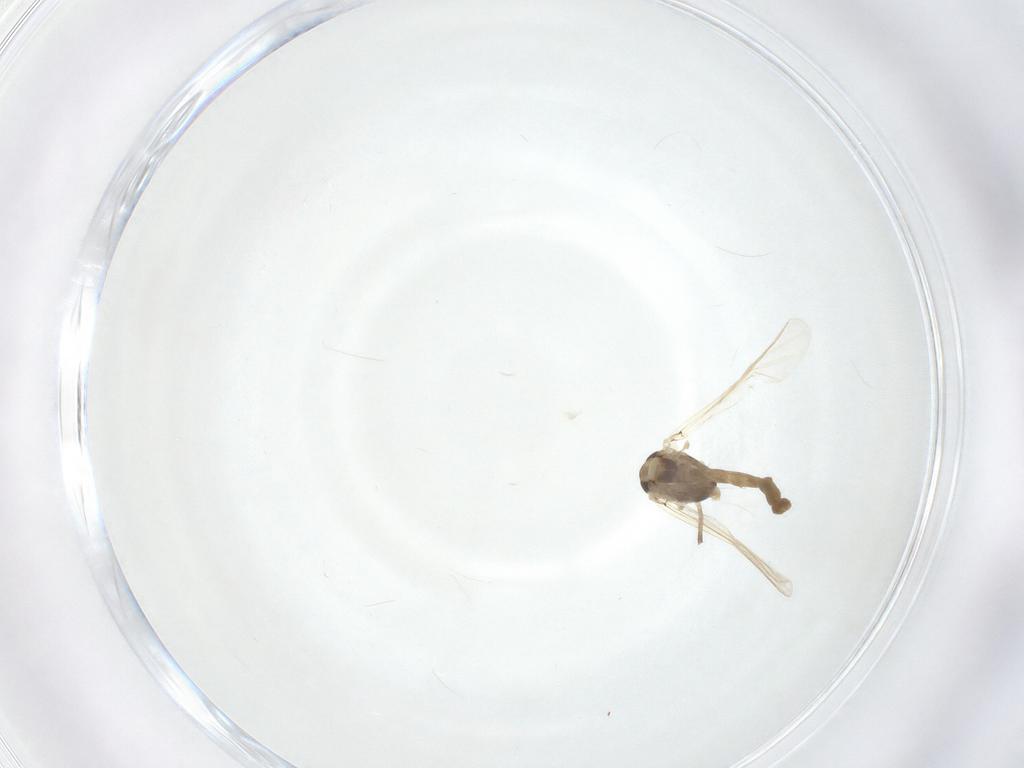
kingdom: Animalia
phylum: Arthropoda
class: Insecta
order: Diptera
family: Chironomidae
